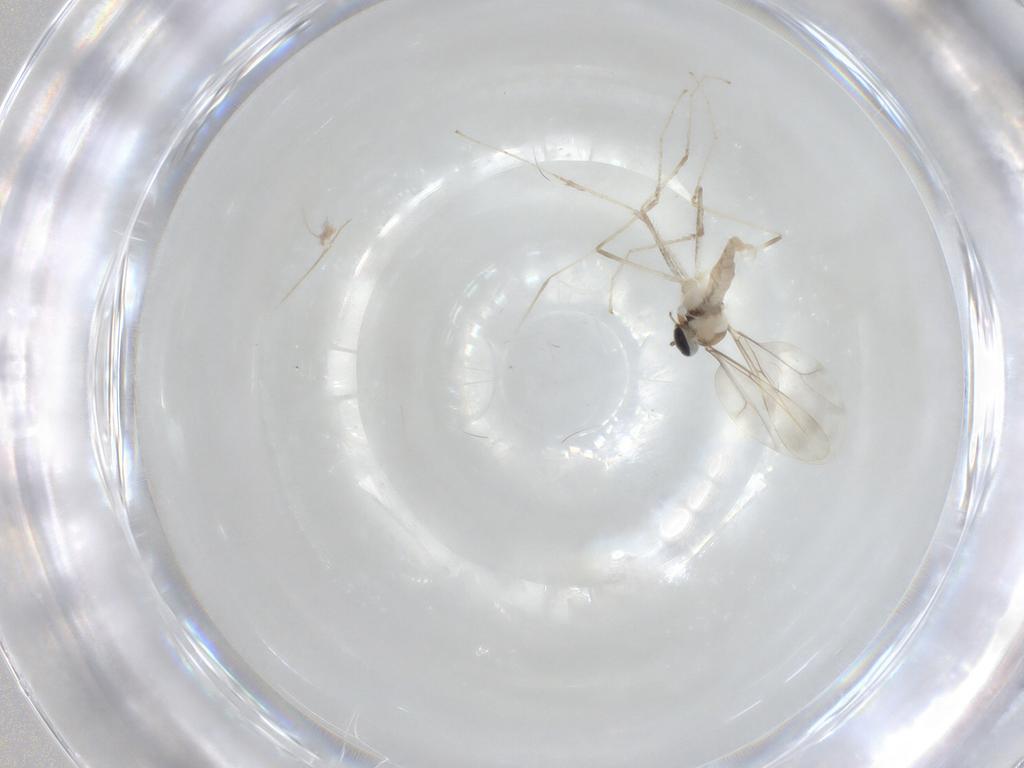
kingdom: Animalia
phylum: Arthropoda
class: Insecta
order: Diptera
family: Cecidomyiidae
